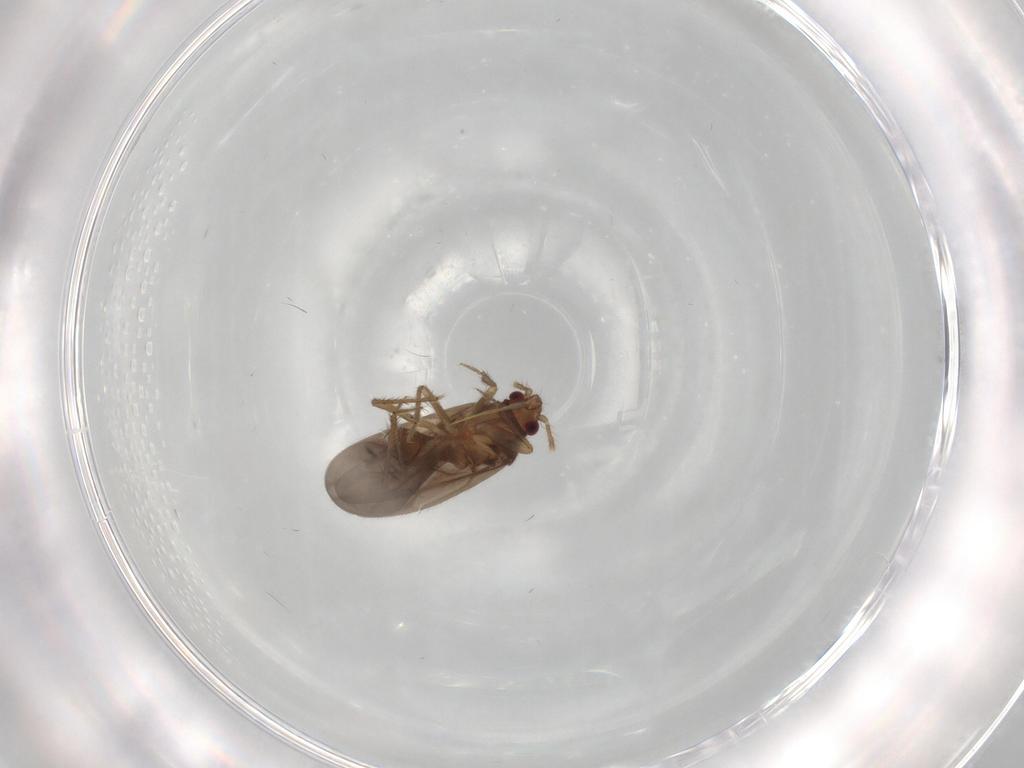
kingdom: Animalia
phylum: Arthropoda
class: Insecta
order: Hemiptera
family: Ceratocombidae
